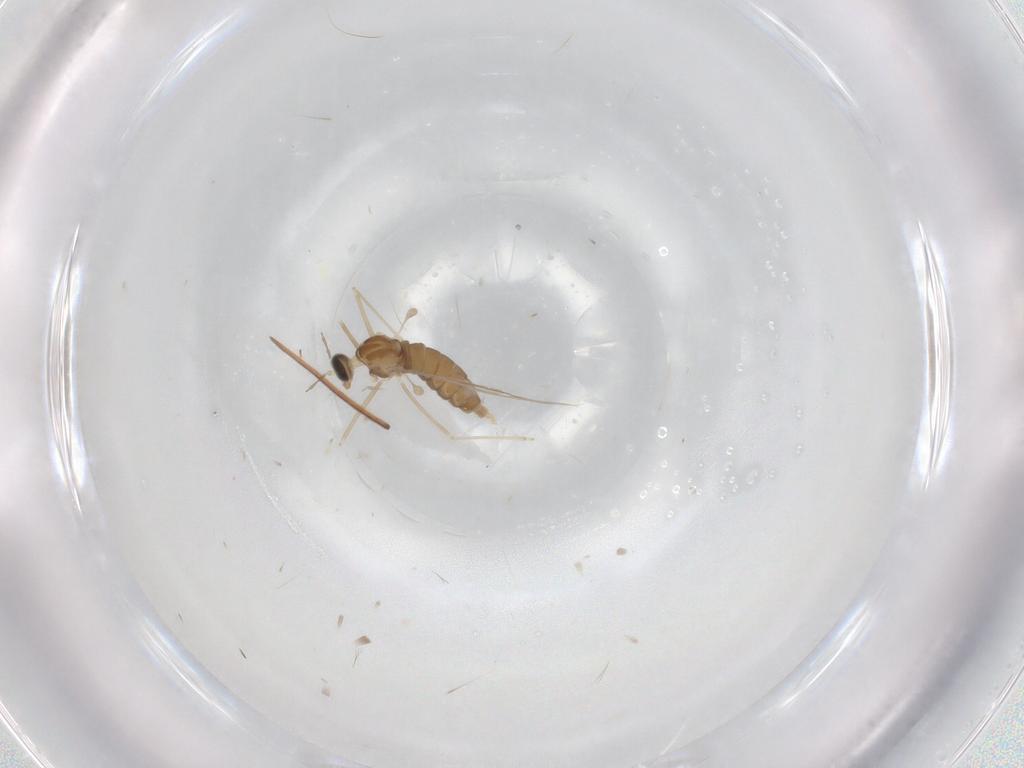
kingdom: Animalia
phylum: Arthropoda
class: Insecta
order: Diptera
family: Cecidomyiidae
